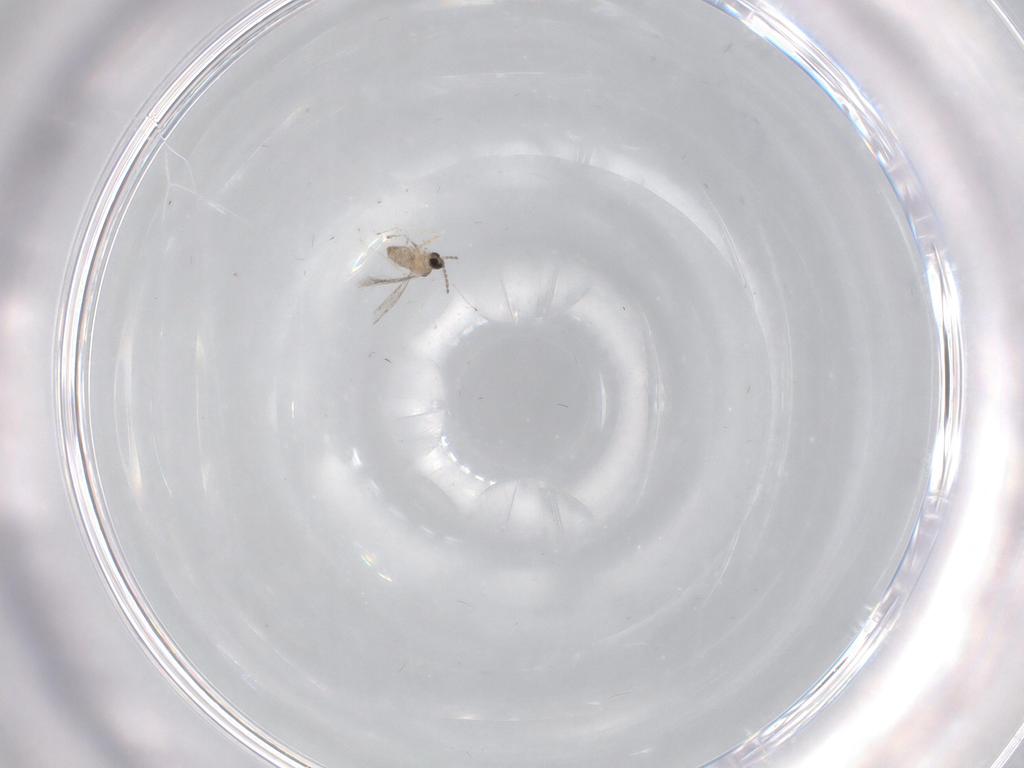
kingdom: Animalia
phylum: Arthropoda
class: Insecta
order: Diptera
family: Cecidomyiidae
